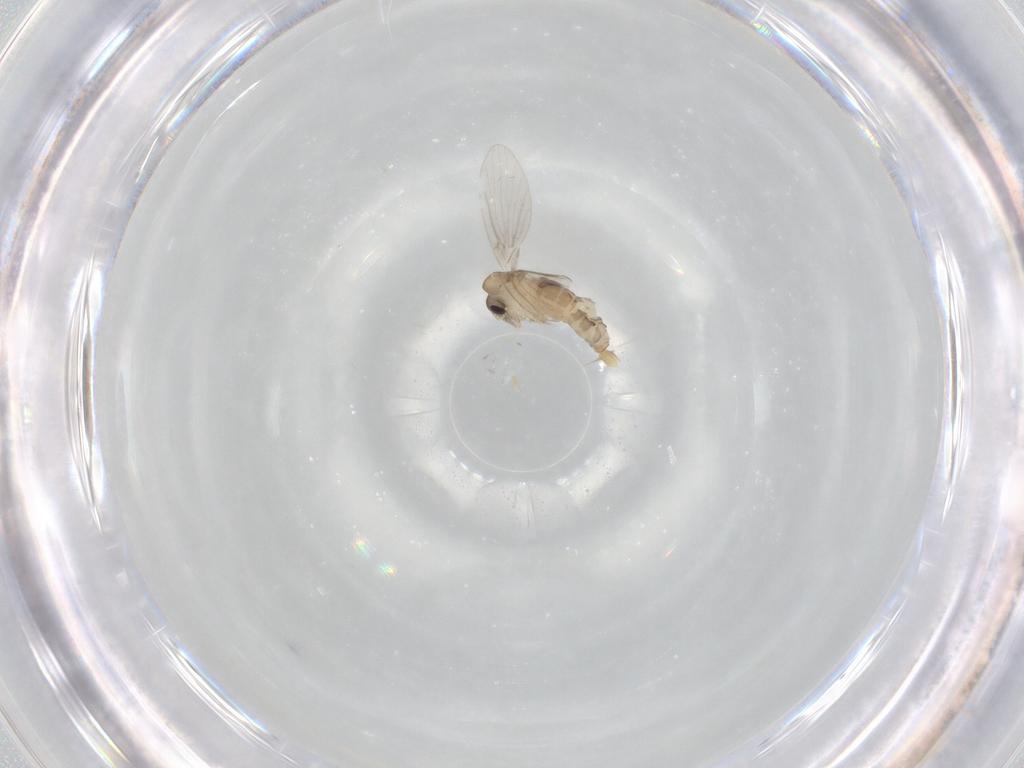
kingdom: Animalia
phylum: Arthropoda
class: Insecta
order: Diptera
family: Psychodidae
